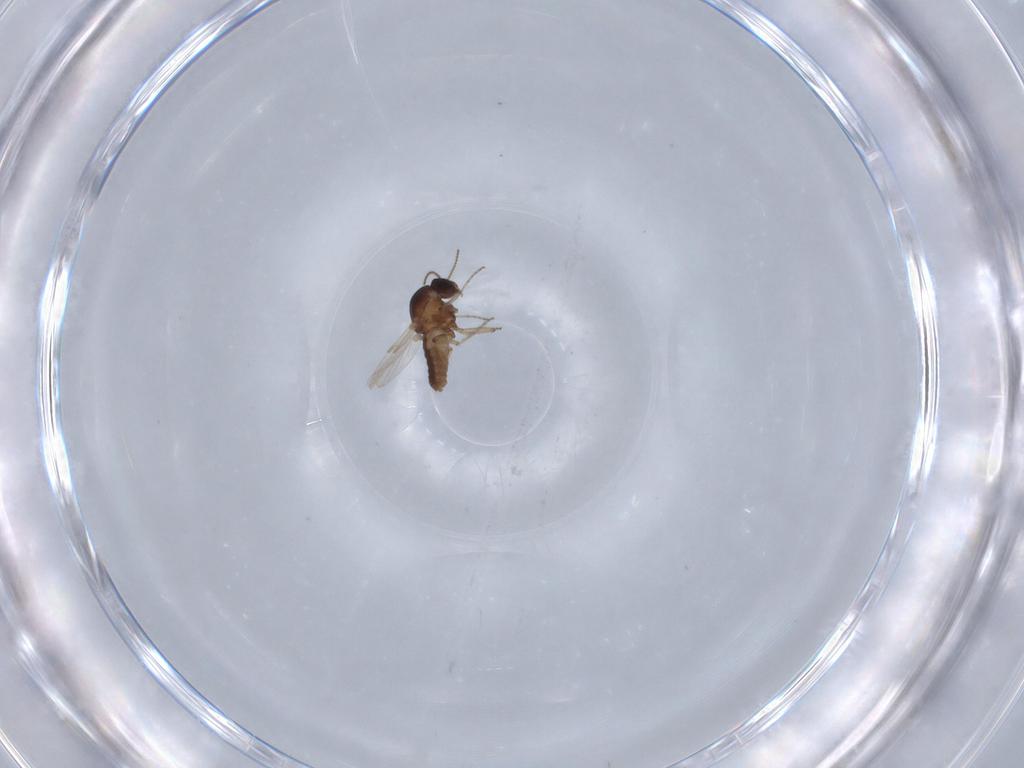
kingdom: Animalia
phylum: Arthropoda
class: Insecta
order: Diptera
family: Ceratopogonidae
